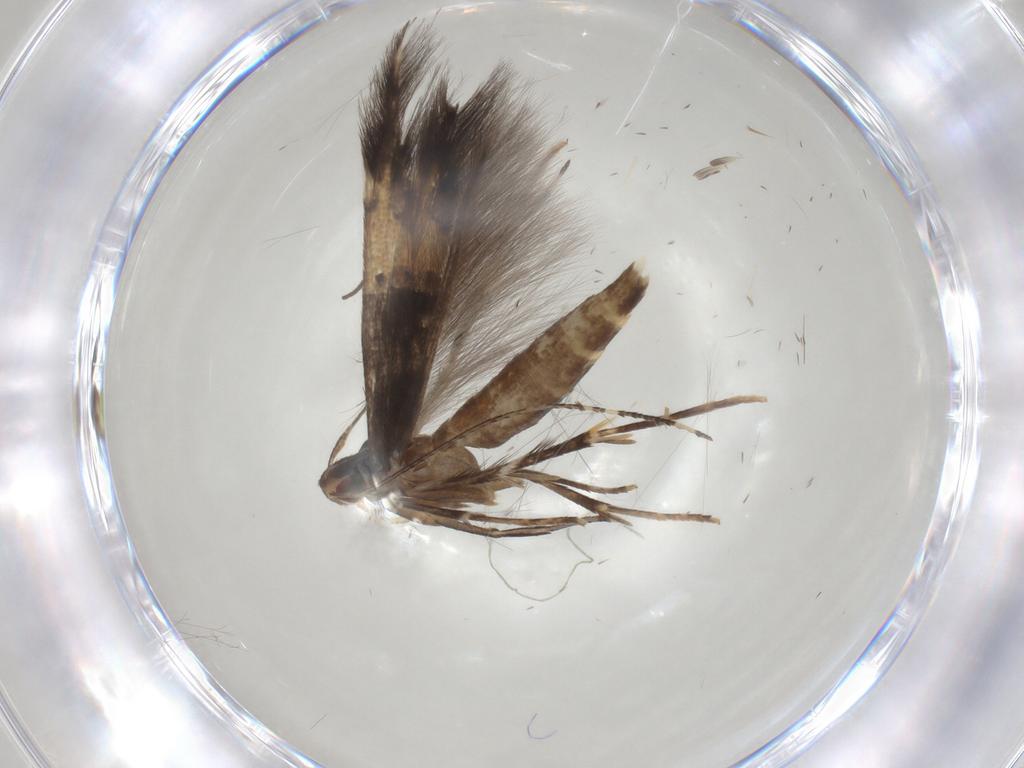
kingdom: Animalia
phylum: Arthropoda
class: Insecta
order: Lepidoptera
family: Cosmopterigidae
